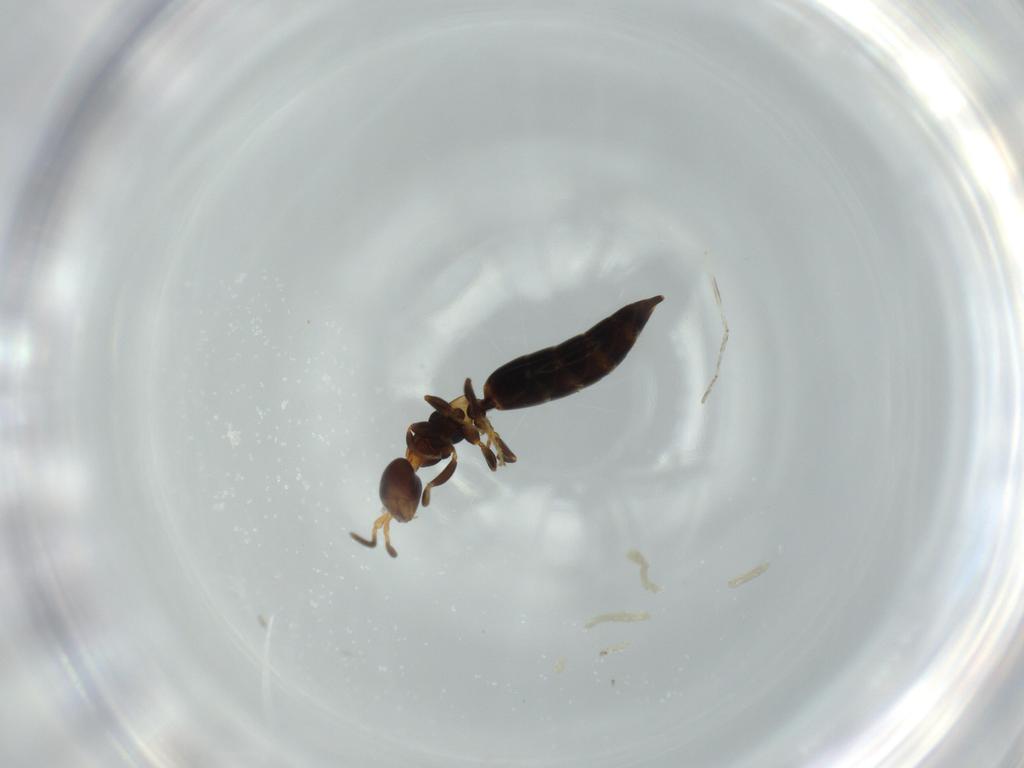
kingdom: Animalia
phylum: Arthropoda
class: Insecta
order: Hymenoptera
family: Bethylidae
